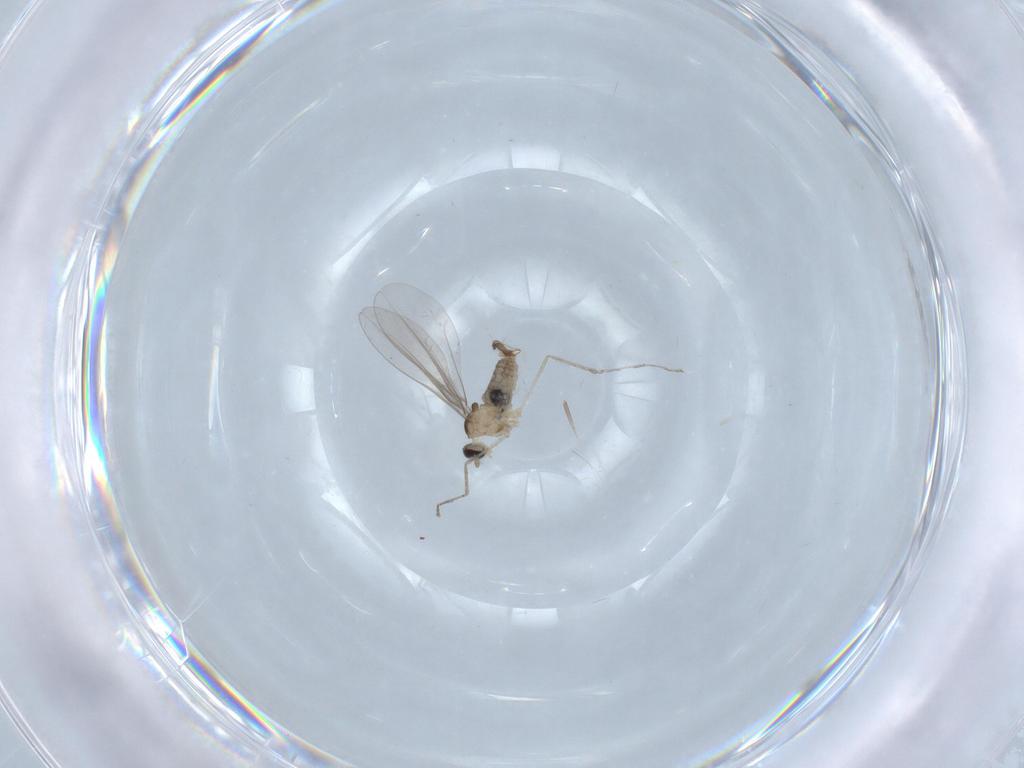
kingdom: Animalia
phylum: Arthropoda
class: Insecta
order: Diptera
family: Cecidomyiidae
